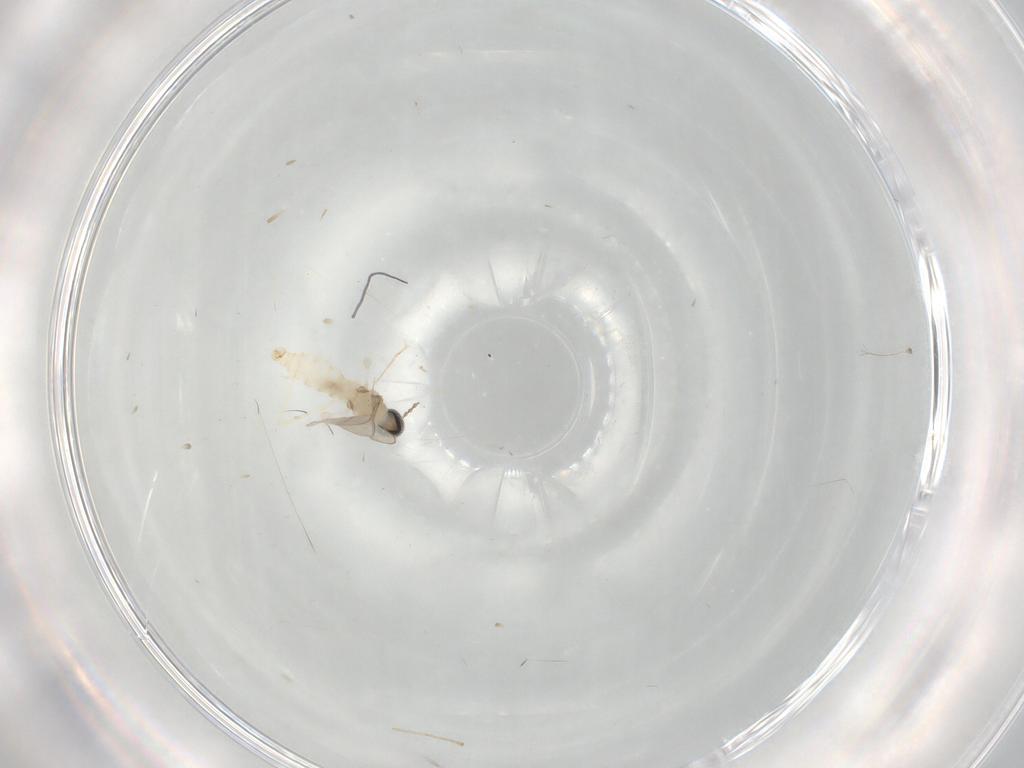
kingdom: Animalia
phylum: Arthropoda
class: Insecta
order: Diptera
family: Cecidomyiidae
